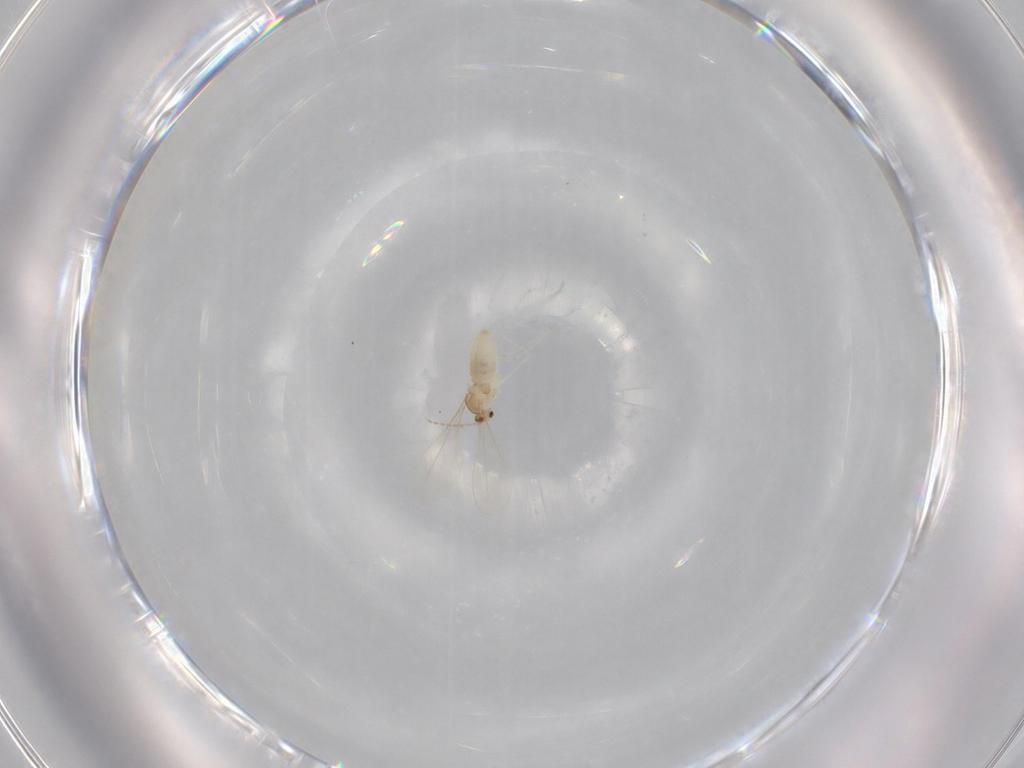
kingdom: Animalia
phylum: Arthropoda
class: Insecta
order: Diptera
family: Cecidomyiidae
